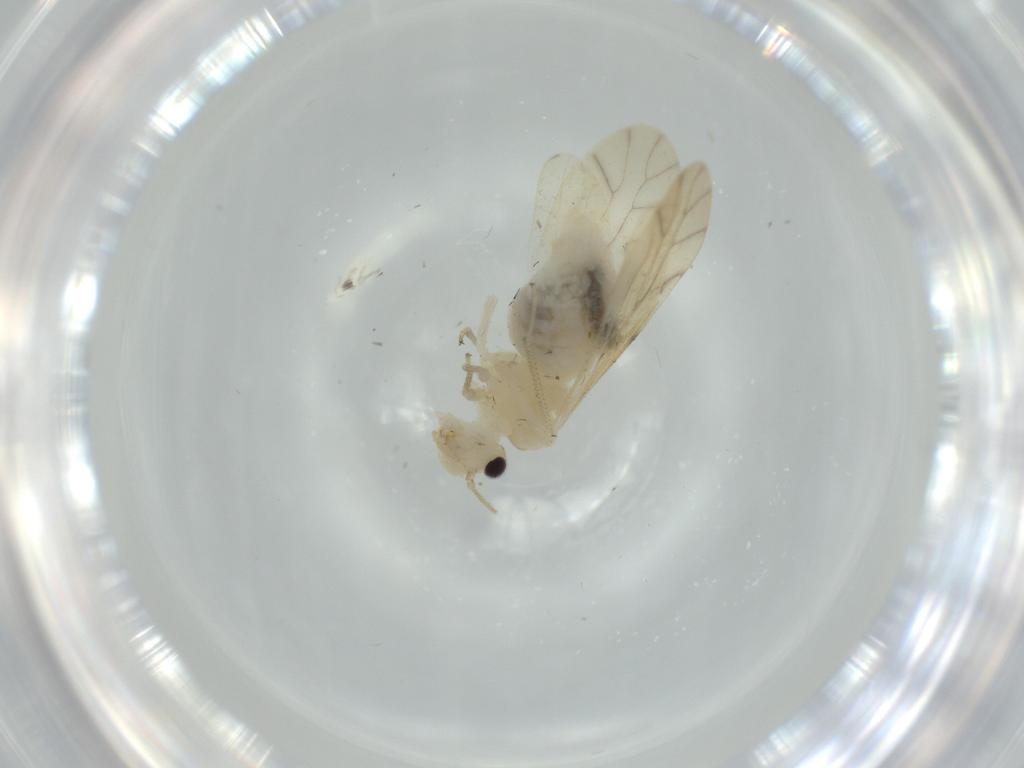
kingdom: Animalia
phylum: Arthropoda
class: Insecta
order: Psocodea
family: Caeciliusidae
